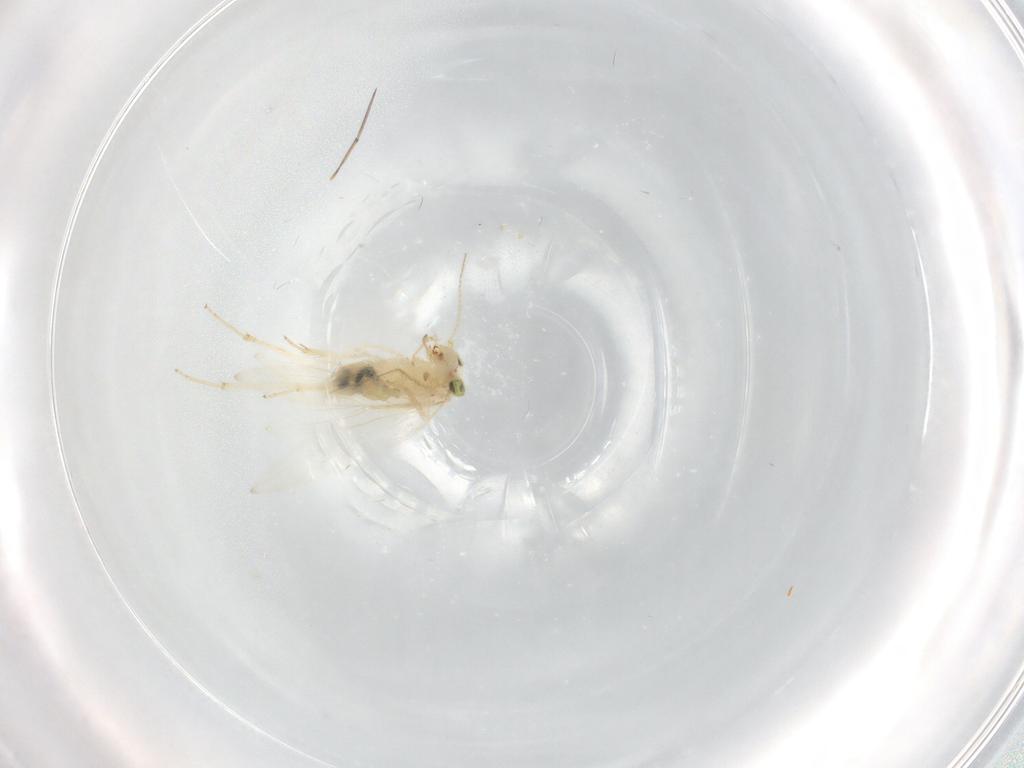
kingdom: Animalia
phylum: Arthropoda
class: Insecta
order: Psocodea
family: Lepidopsocidae
